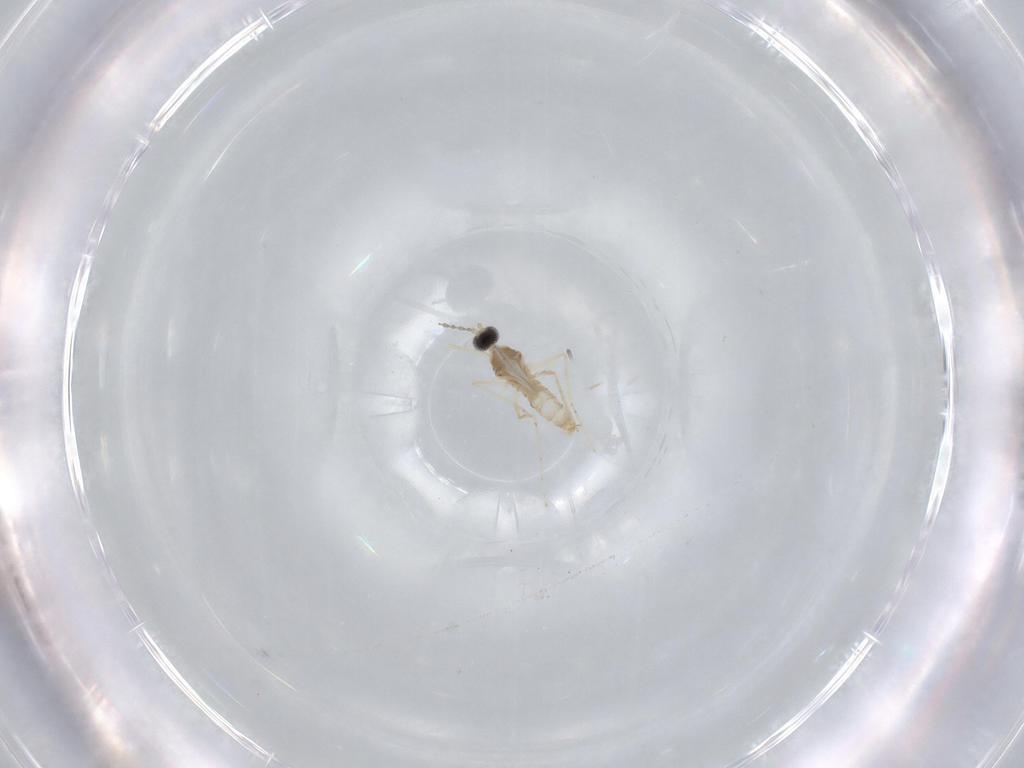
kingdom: Animalia
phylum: Arthropoda
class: Insecta
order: Diptera
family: Cecidomyiidae
